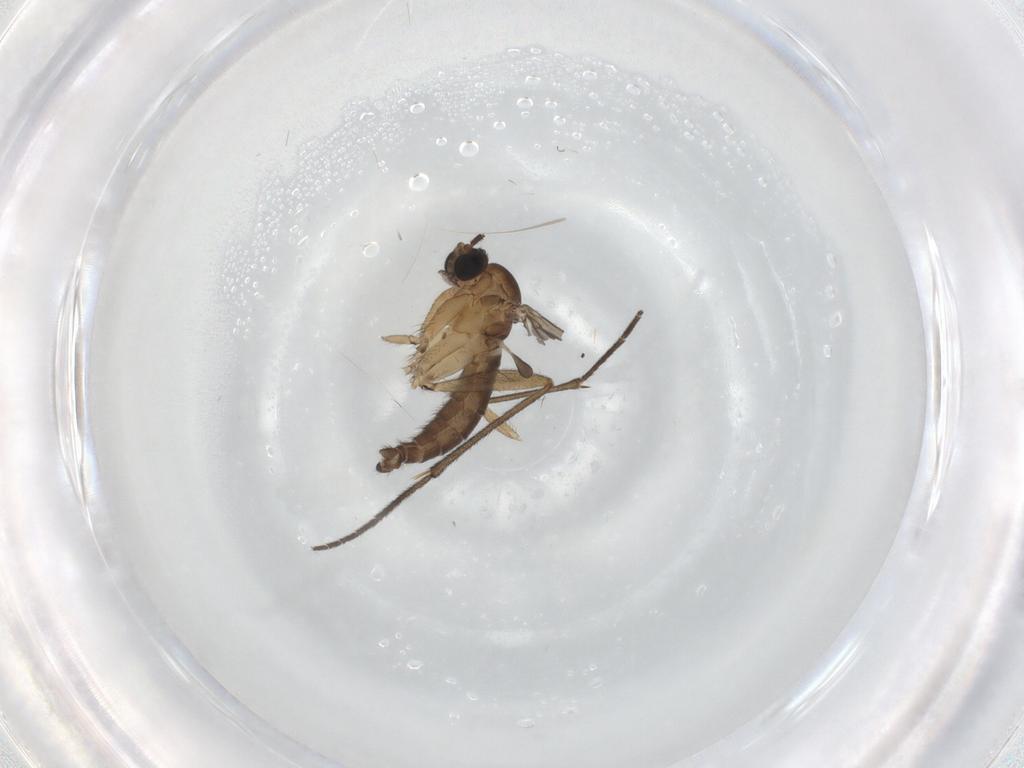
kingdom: Animalia
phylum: Arthropoda
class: Insecta
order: Diptera
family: Sciaridae
